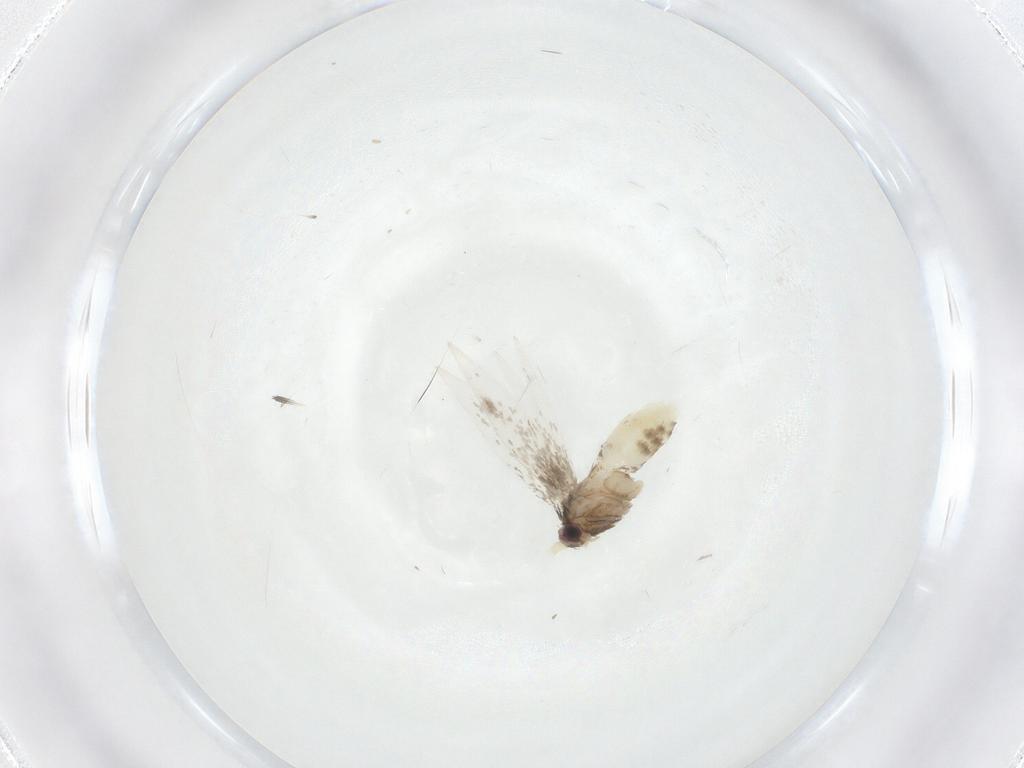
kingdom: Animalia
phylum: Arthropoda
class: Insecta
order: Lepidoptera
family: Nepticulidae
